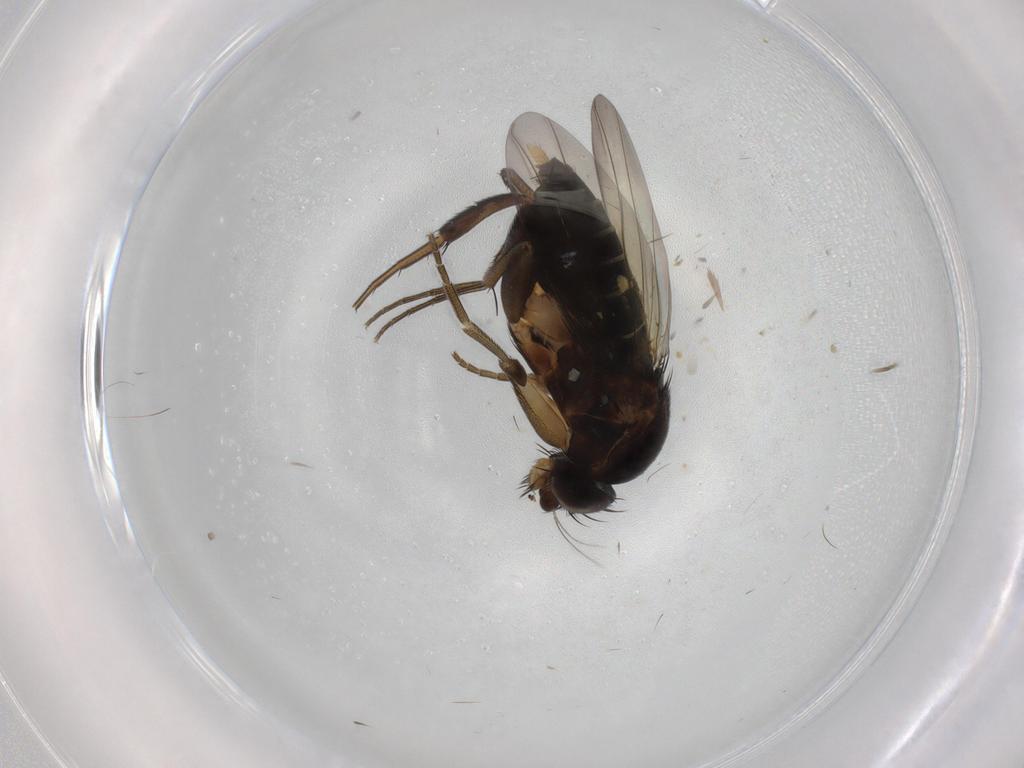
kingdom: Animalia
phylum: Arthropoda
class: Insecta
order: Diptera
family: Limoniidae
